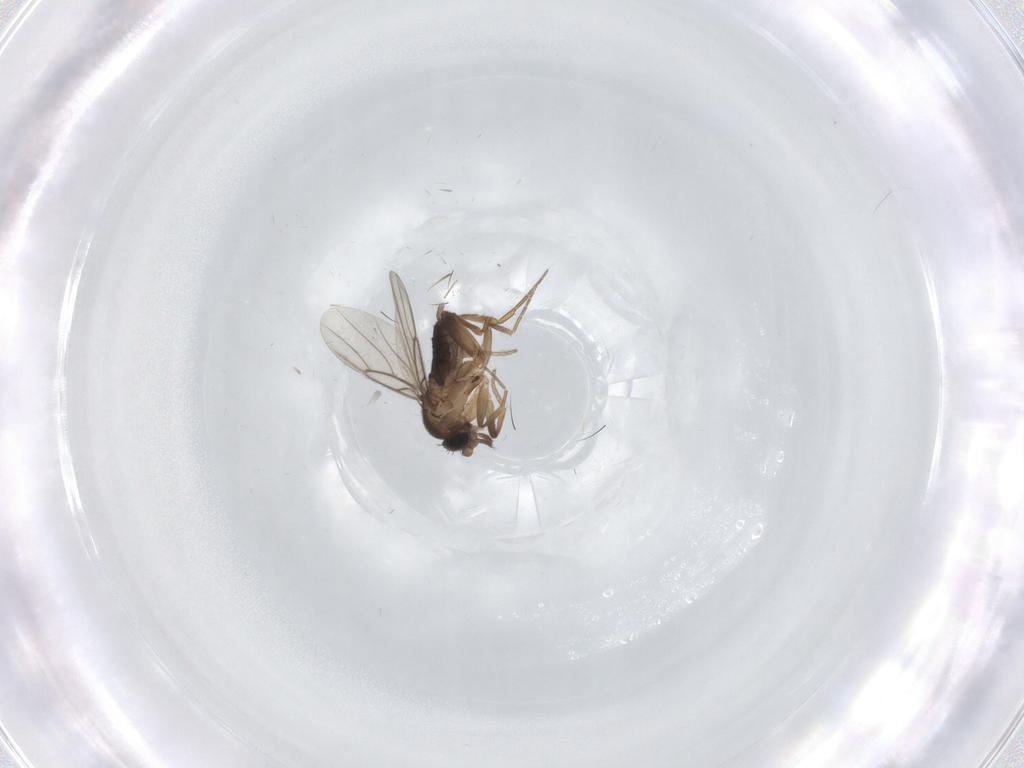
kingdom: Animalia
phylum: Arthropoda
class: Insecta
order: Diptera
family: Phoridae
